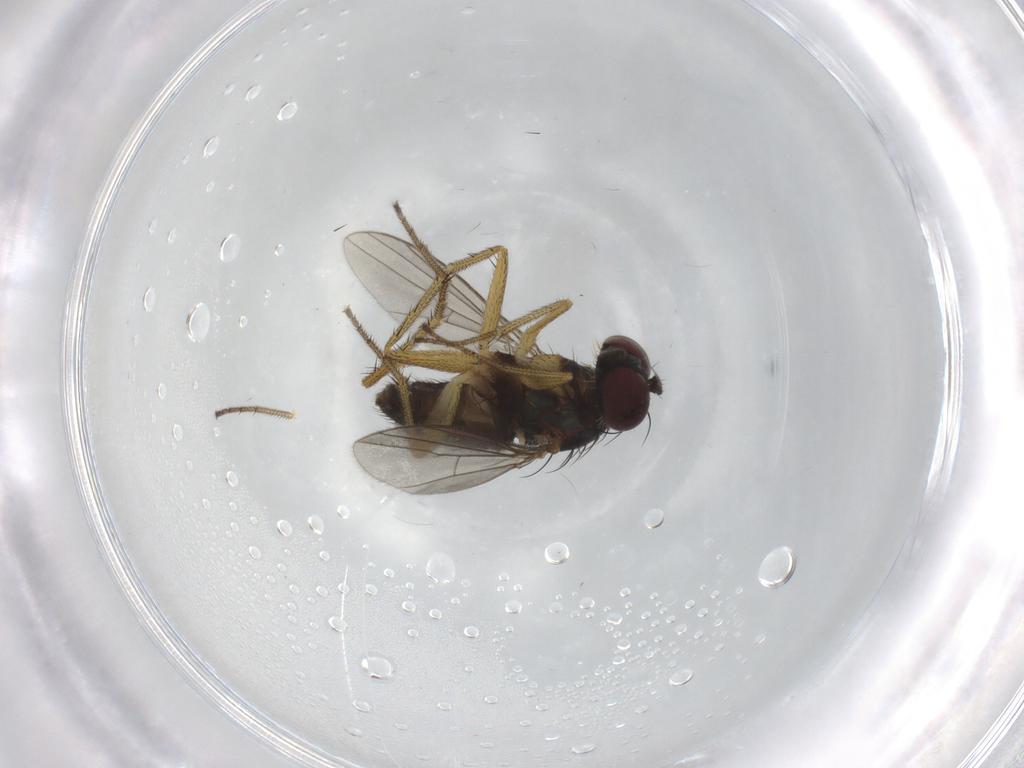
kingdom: Animalia
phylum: Arthropoda
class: Insecta
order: Diptera
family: Dolichopodidae
